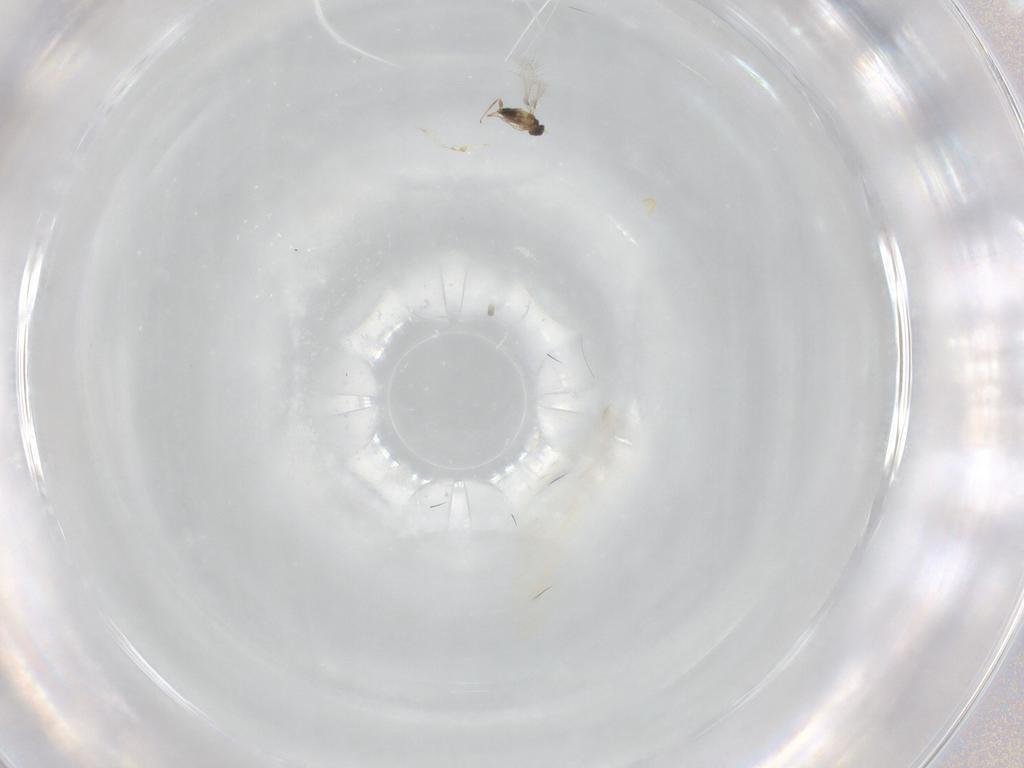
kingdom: Animalia
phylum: Arthropoda
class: Insecta
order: Hymenoptera
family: Mymaridae
